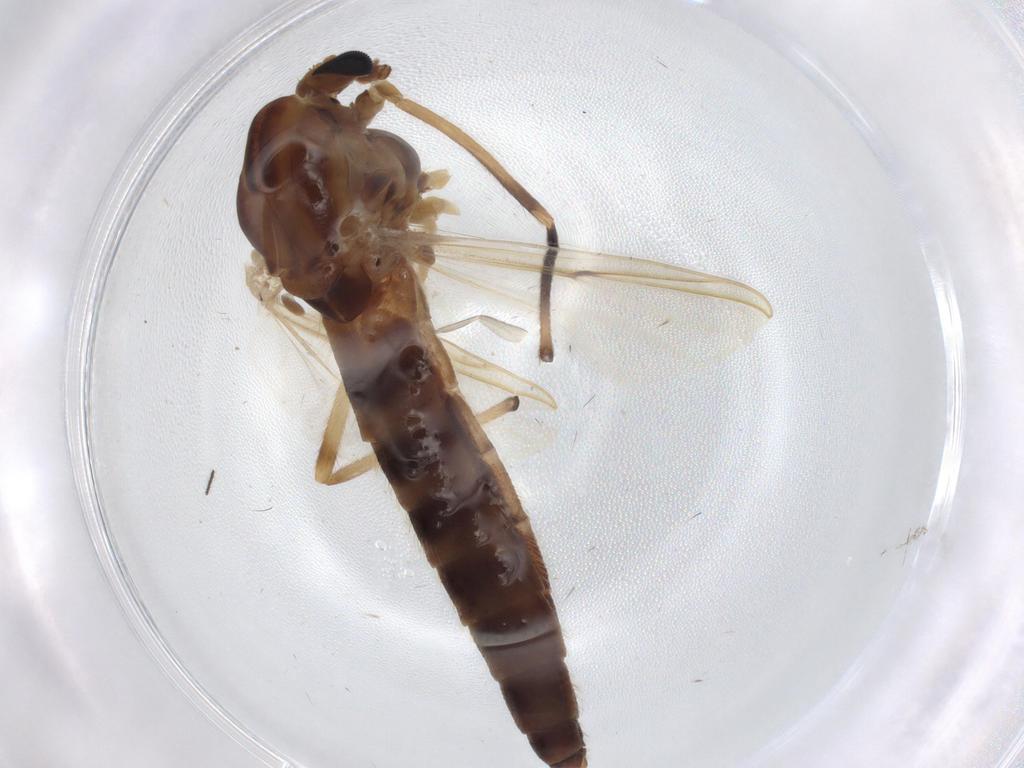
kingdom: Animalia
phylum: Arthropoda
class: Insecta
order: Diptera
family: Chironomidae
